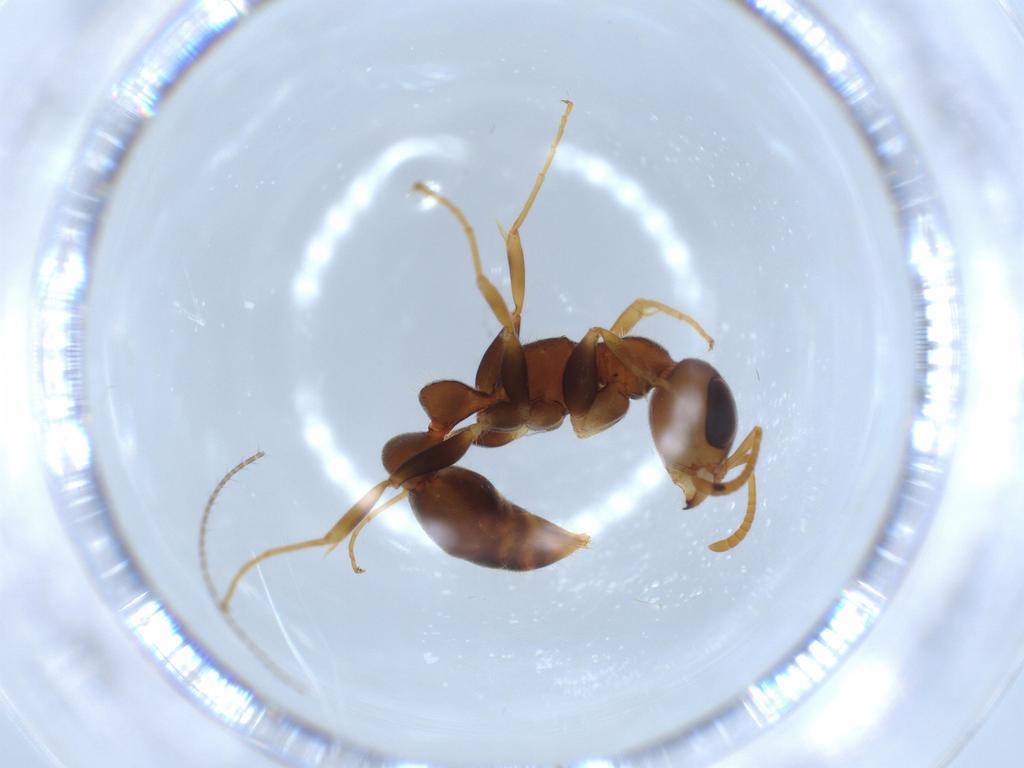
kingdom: Animalia
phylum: Arthropoda
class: Insecta
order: Hymenoptera
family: Formicidae
